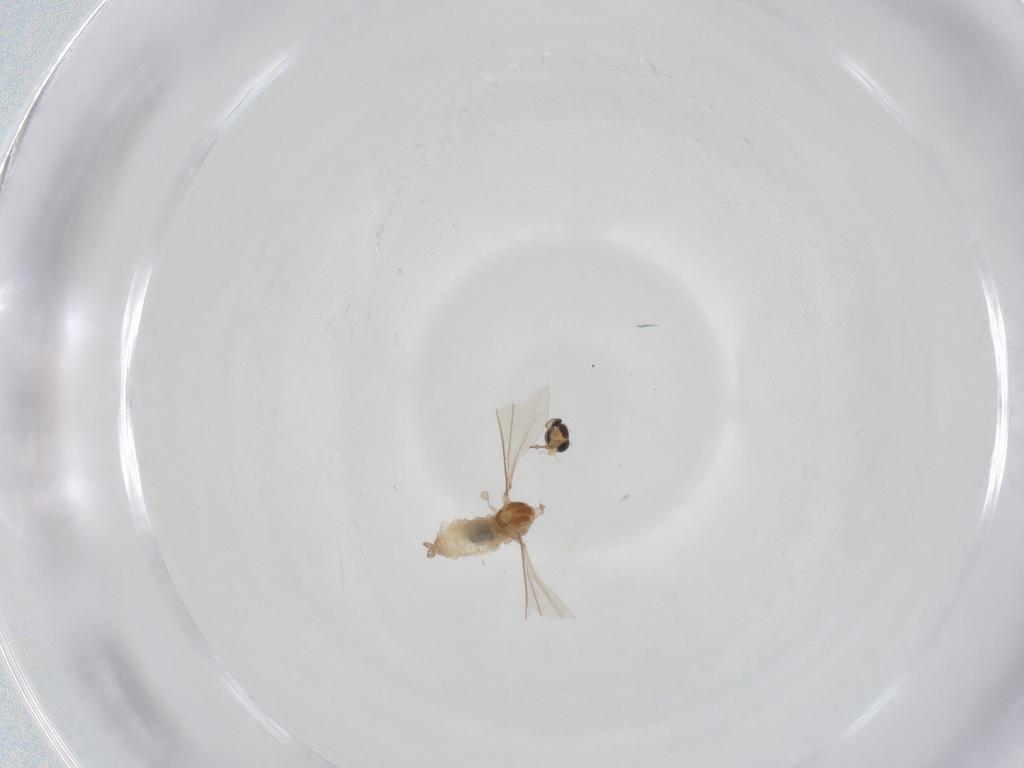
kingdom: Animalia
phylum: Arthropoda
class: Insecta
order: Diptera
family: Cecidomyiidae
